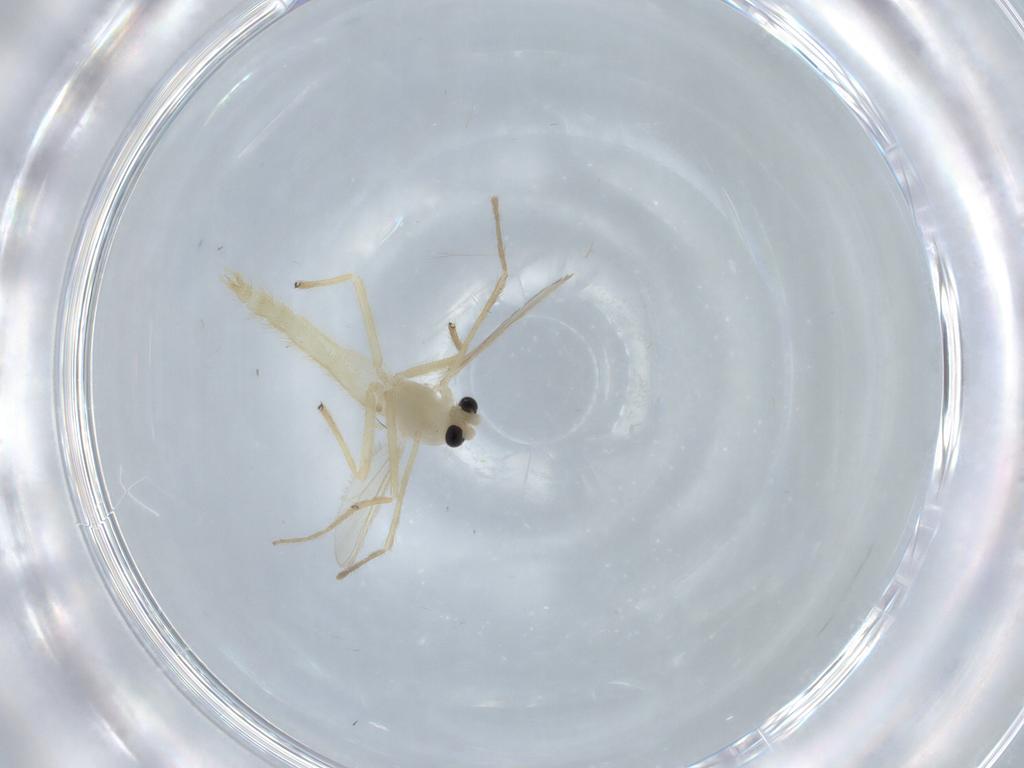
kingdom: Animalia
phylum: Arthropoda
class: Insecta
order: Diptera
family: Chironomidae
